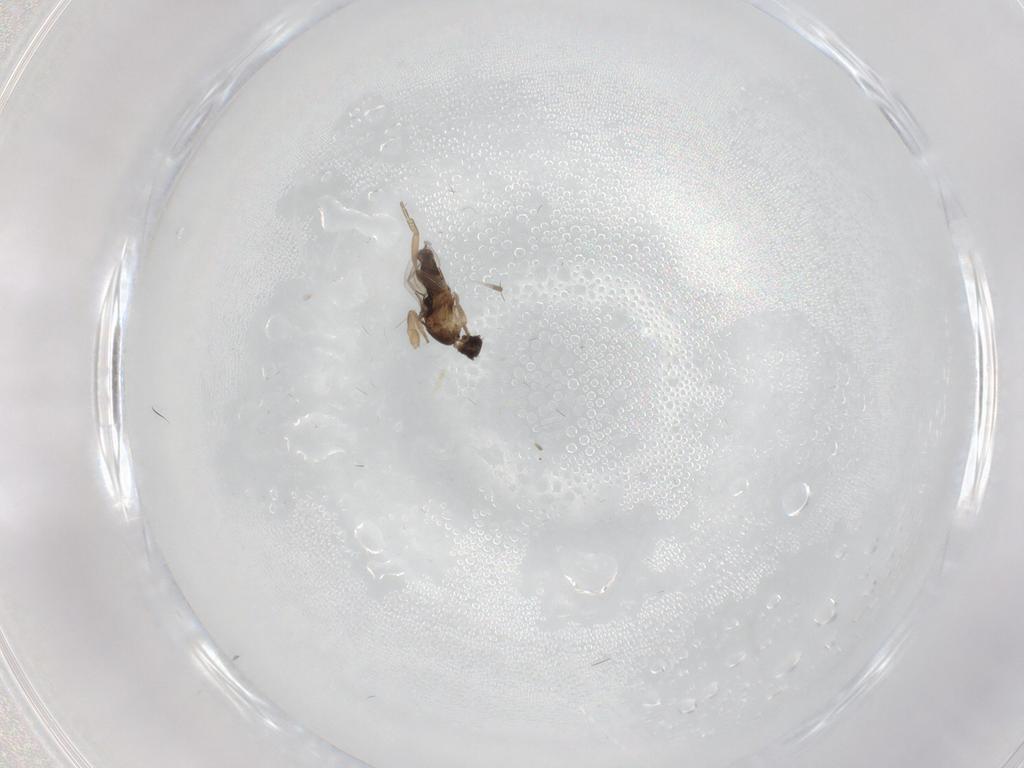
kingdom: Animalia
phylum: Arthropoda
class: Insecta
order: Diptera
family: Phoridae
